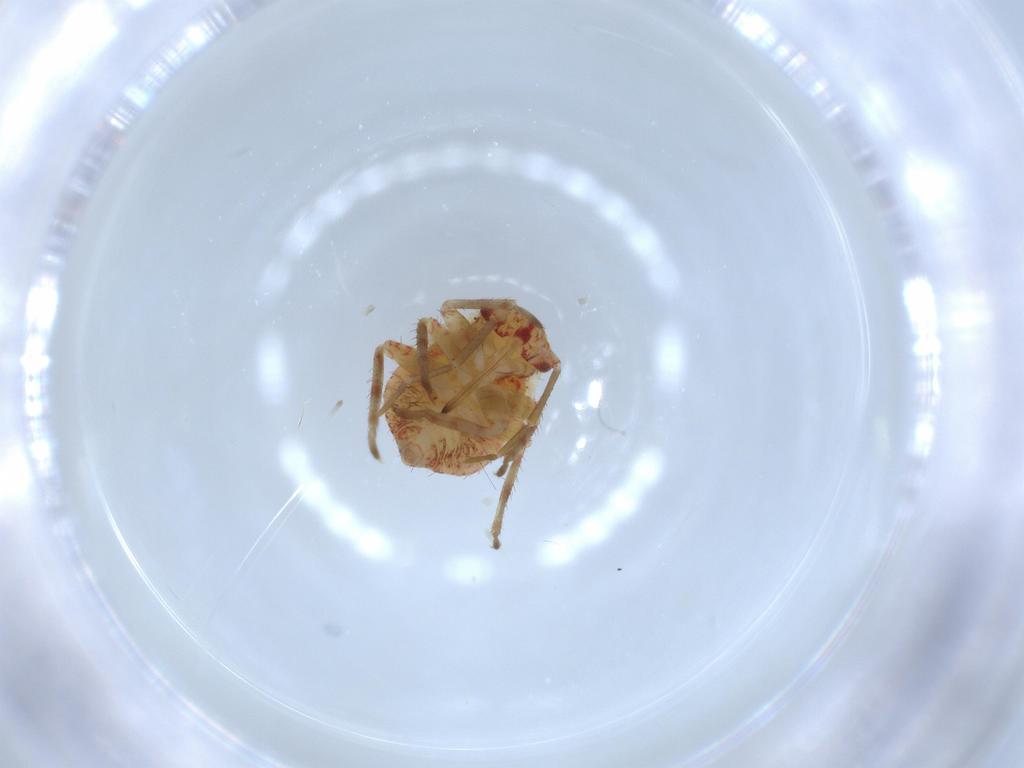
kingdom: Animalia
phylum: Arthropoda
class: Insecta
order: Hemiptera
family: Miridae
